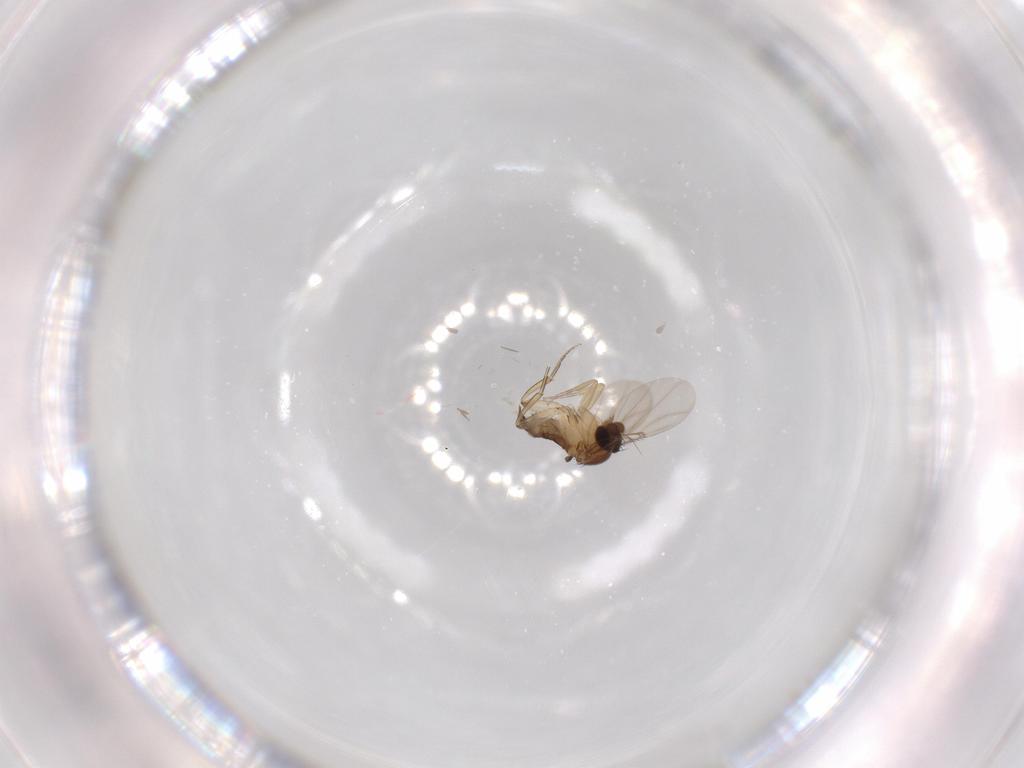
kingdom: Animalia
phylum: Arthropoda
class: Insecta
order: Diptera
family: Phoridae
